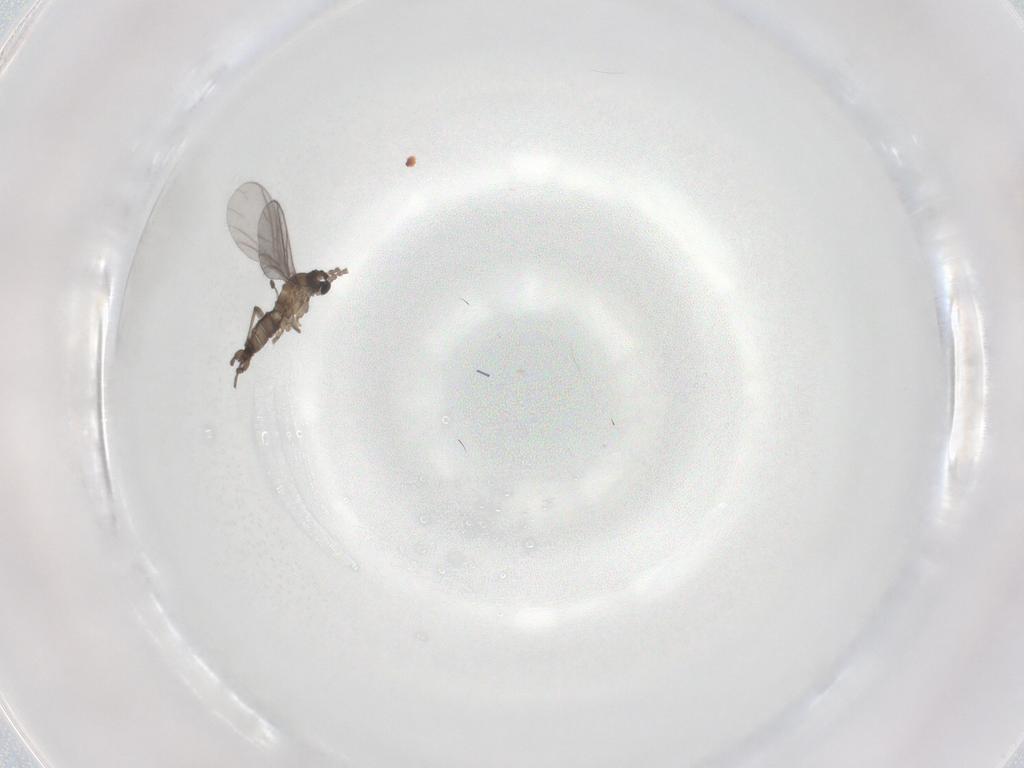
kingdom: Animalia
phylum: Arthropoda
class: Insecta
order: Diptera
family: Sciaridae
